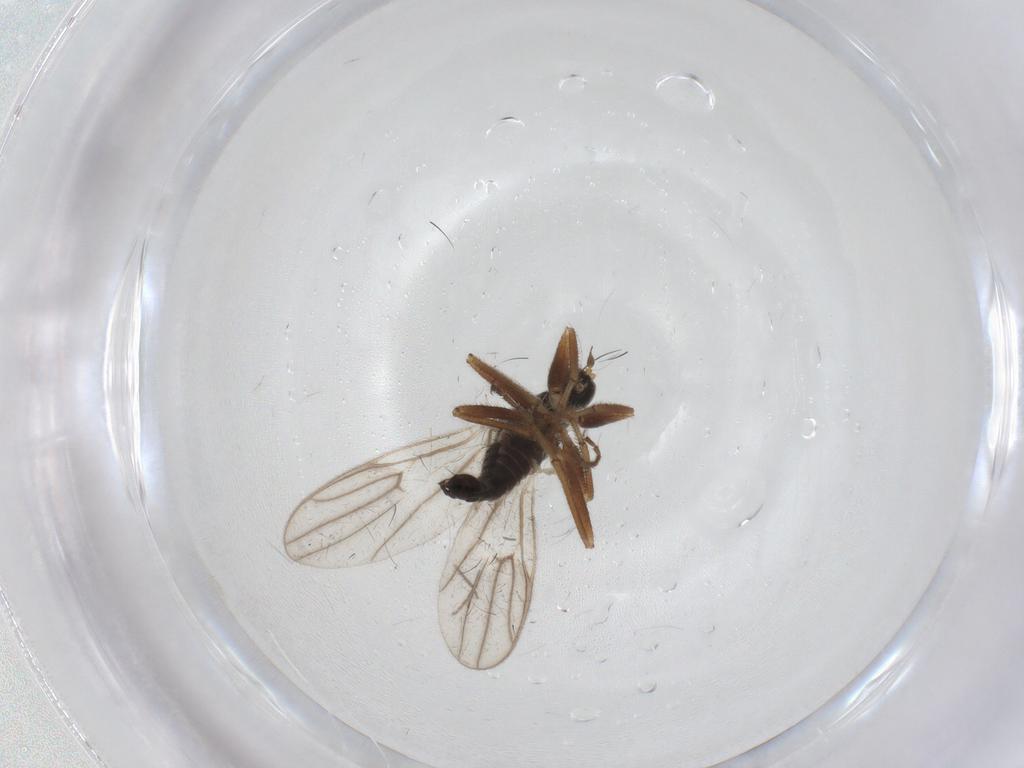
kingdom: Animalia
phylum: Arthropoda
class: Insecta
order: Diptera
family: Hybotidae
